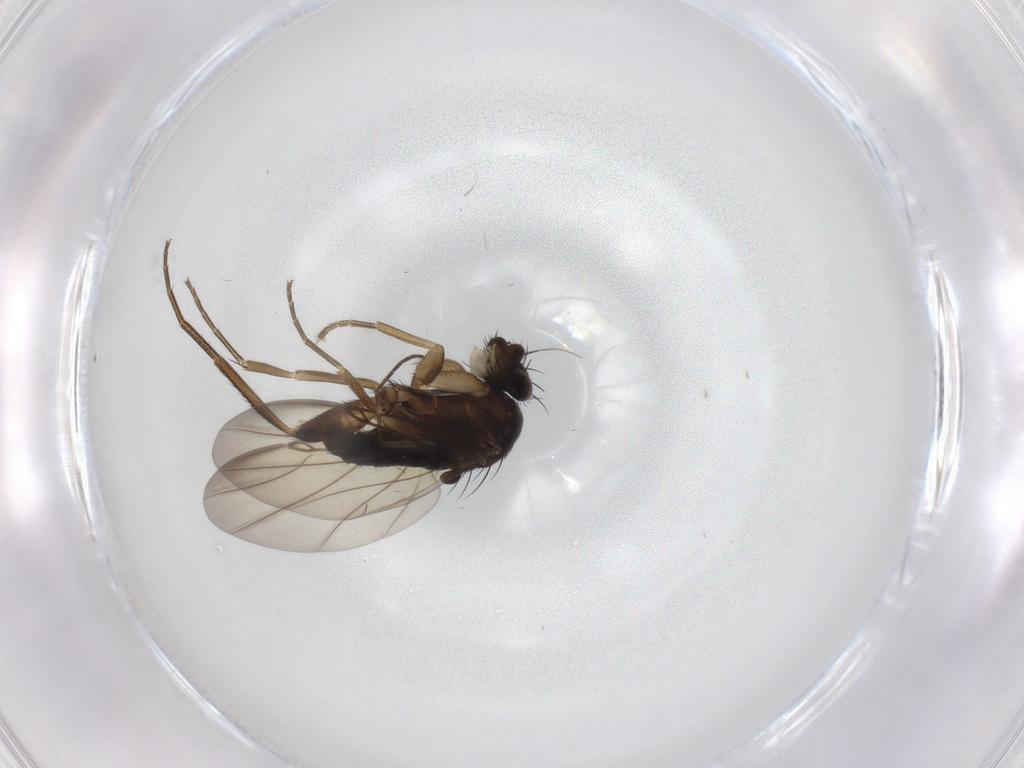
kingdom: Animalia
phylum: Arthropoda
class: Insecta
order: Diptera
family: Phoridae
